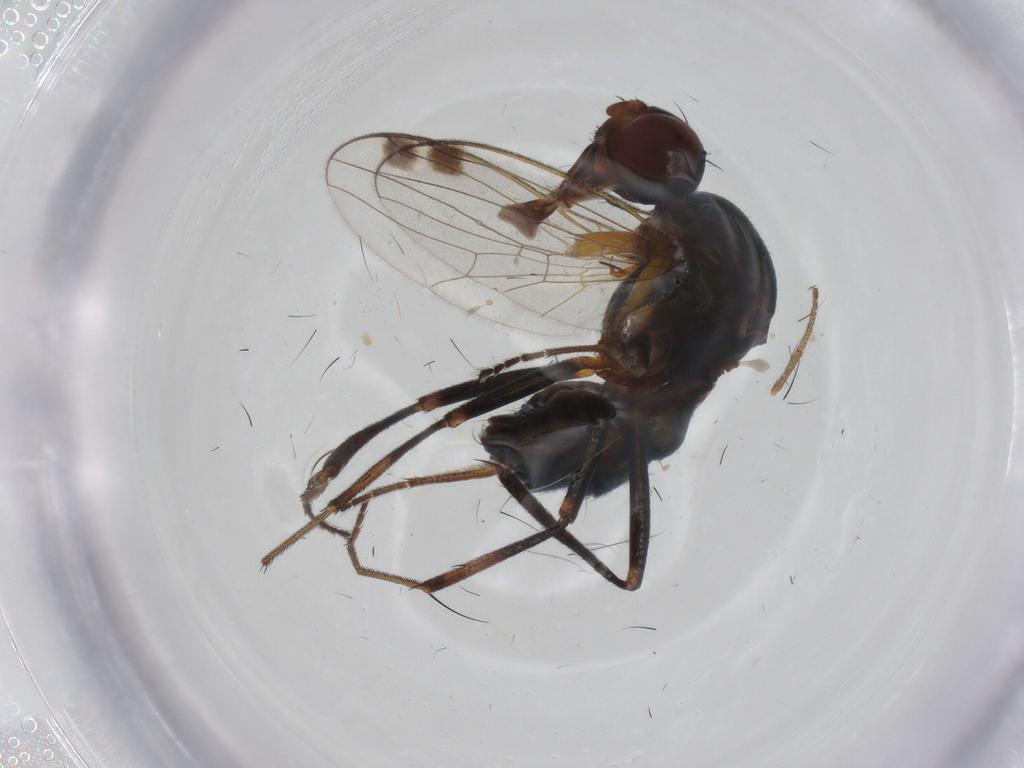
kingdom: Animalia
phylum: Arthropoda
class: Insecta
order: Diptera
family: Sepsidae
